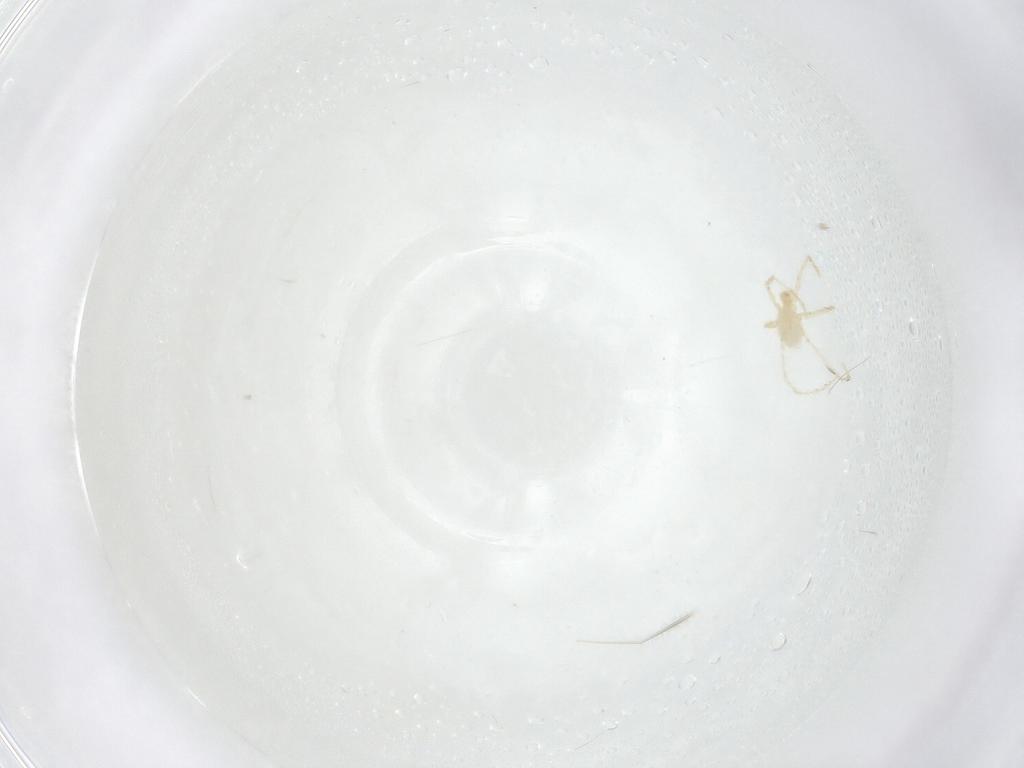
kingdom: Animalia
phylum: Arthropoda
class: Arachnida
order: Trombidiformes
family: Erythraeidae
